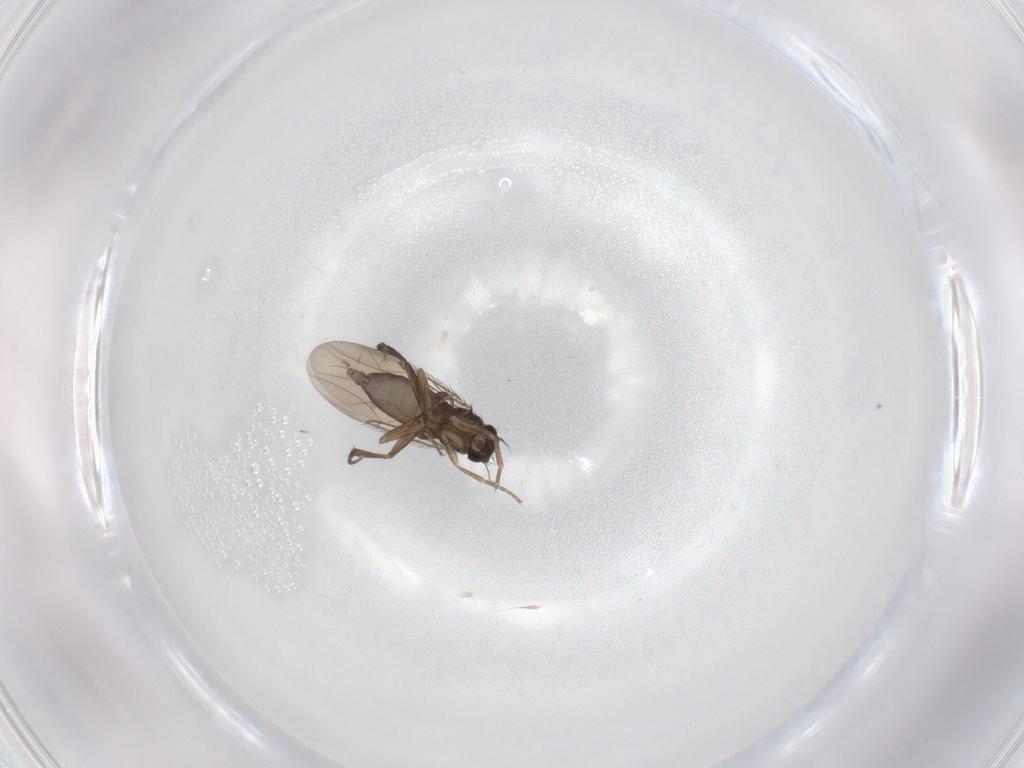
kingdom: Animalia
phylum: Arthropoda
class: Insecta
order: Diptera
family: Phoridae
